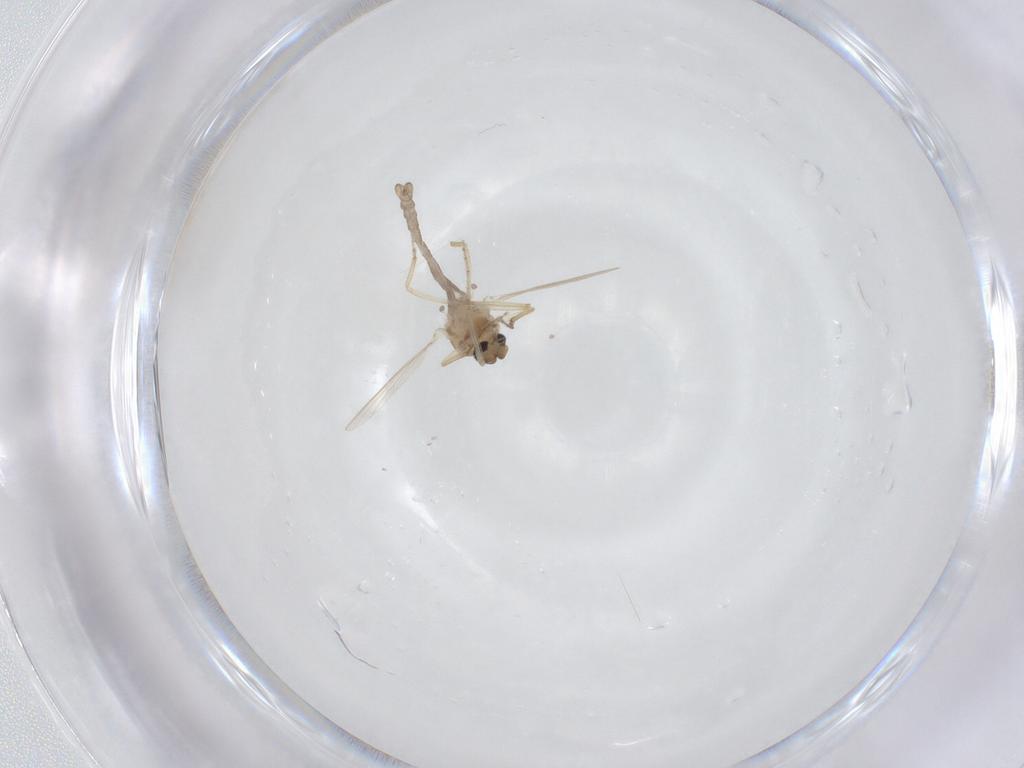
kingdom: Animalia
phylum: Arthropoda
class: Insecta
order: Diptera
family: Ceratopogonidae
